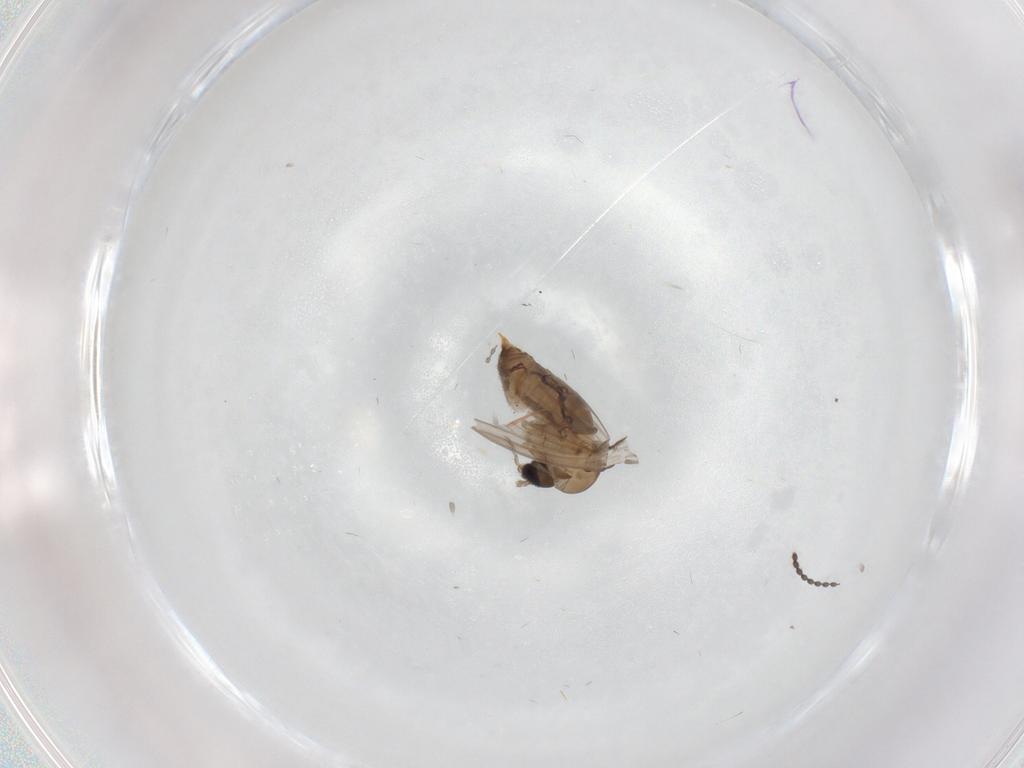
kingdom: Animalia
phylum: Arthropoda
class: Insecta
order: Diptera
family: Psychodidae
